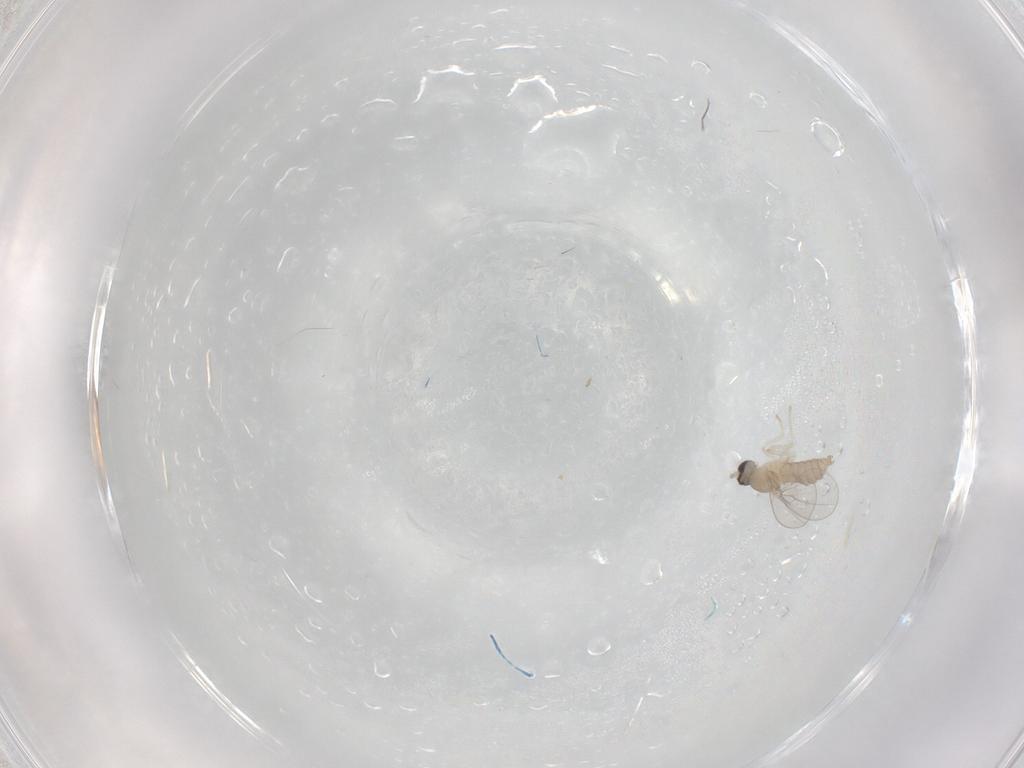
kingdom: Animalia
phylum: Arthropoda
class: Insecta
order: Diptera
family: Cecidomyiidae
